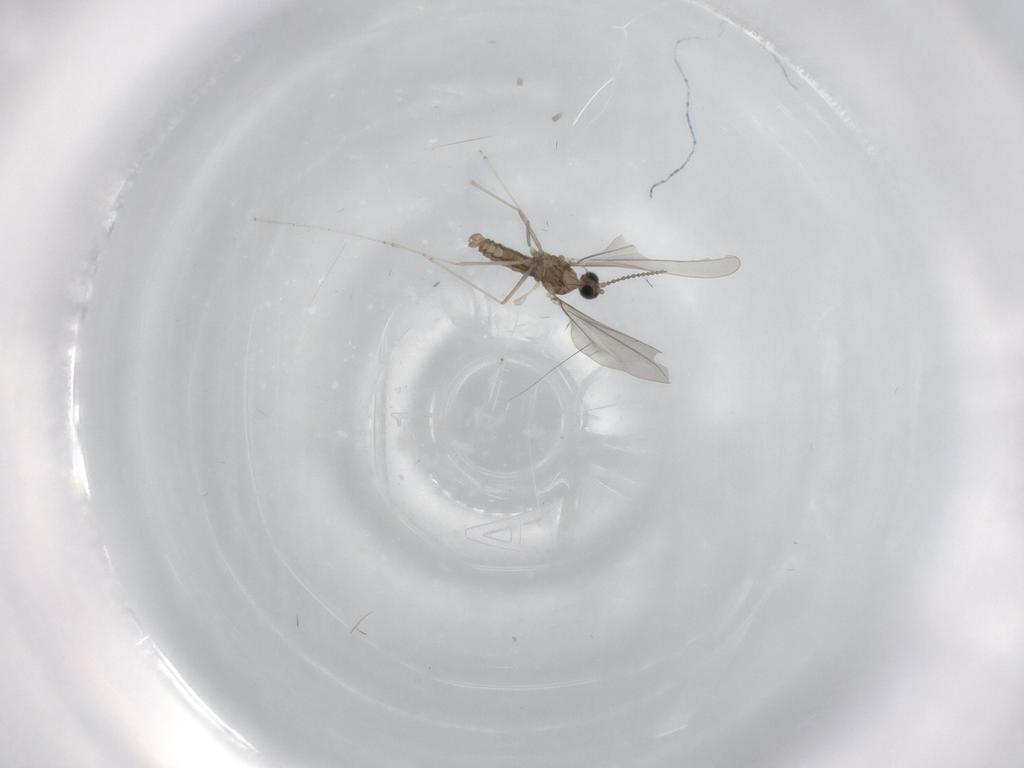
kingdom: Animalia
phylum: Arthropoda
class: Insecta
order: Diptera
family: Cecidomyiidae
